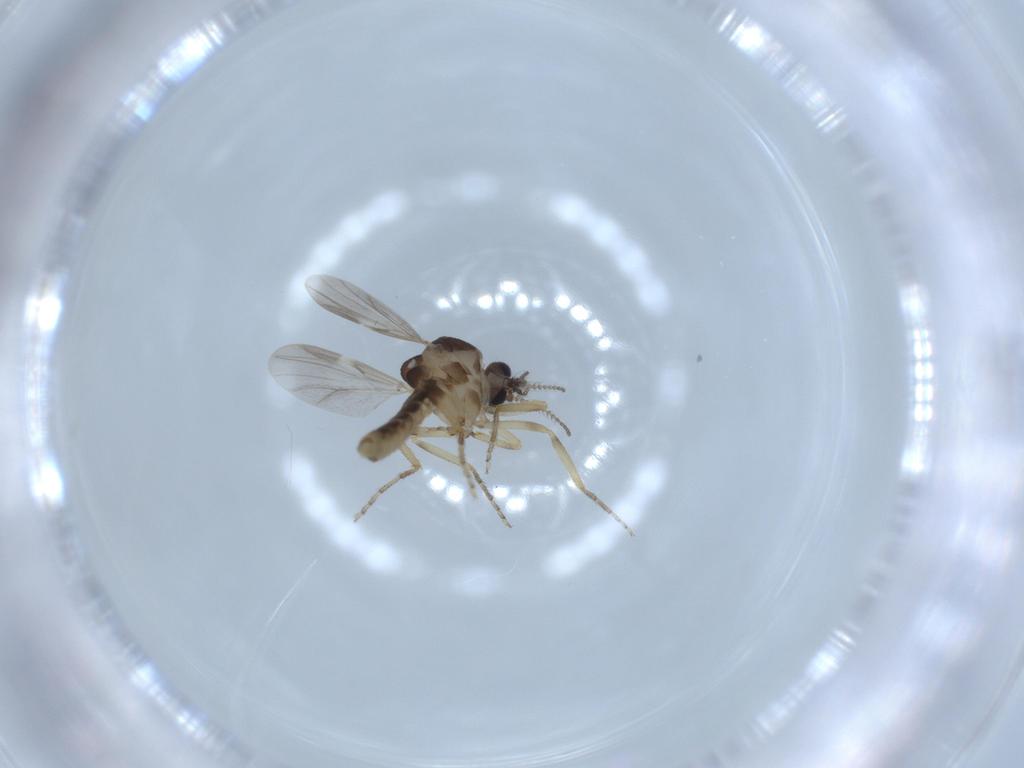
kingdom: Animalia
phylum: Arthropoda
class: Insecta
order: Diptera
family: Ceratopogonidae
